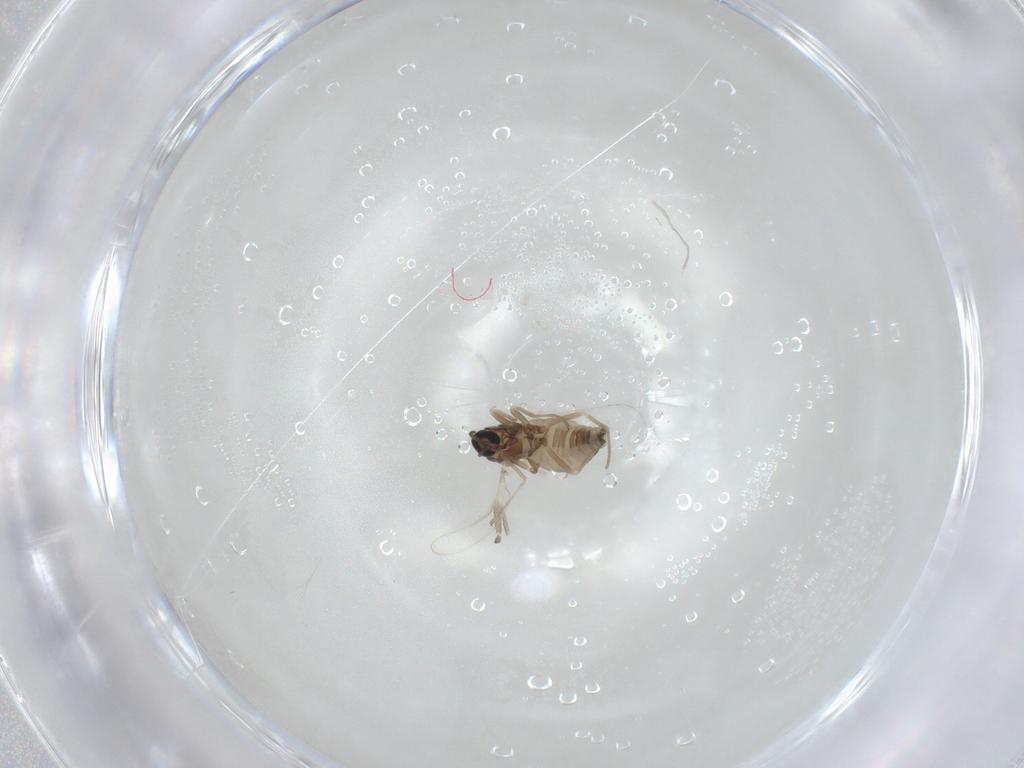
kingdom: Animalia
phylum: Arthropoda
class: Insecta
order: Diptera
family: Cecidomyiidae
